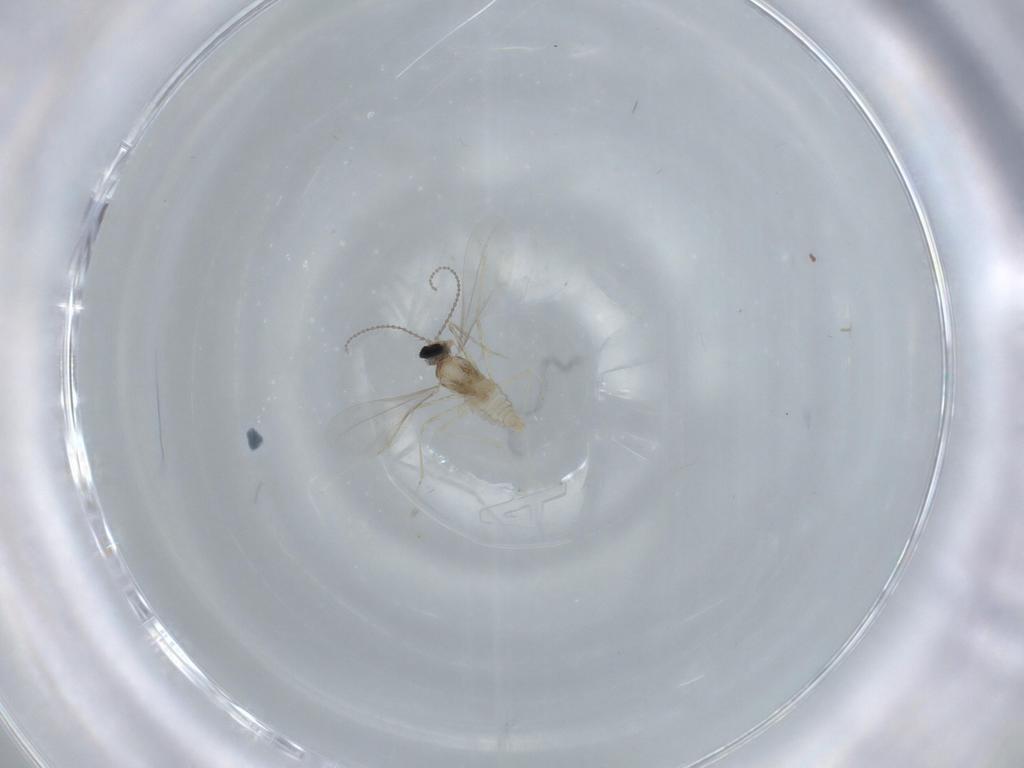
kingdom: Animalia
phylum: Arthropoda
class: Insecta
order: Diptera
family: Cecidomyiidae
